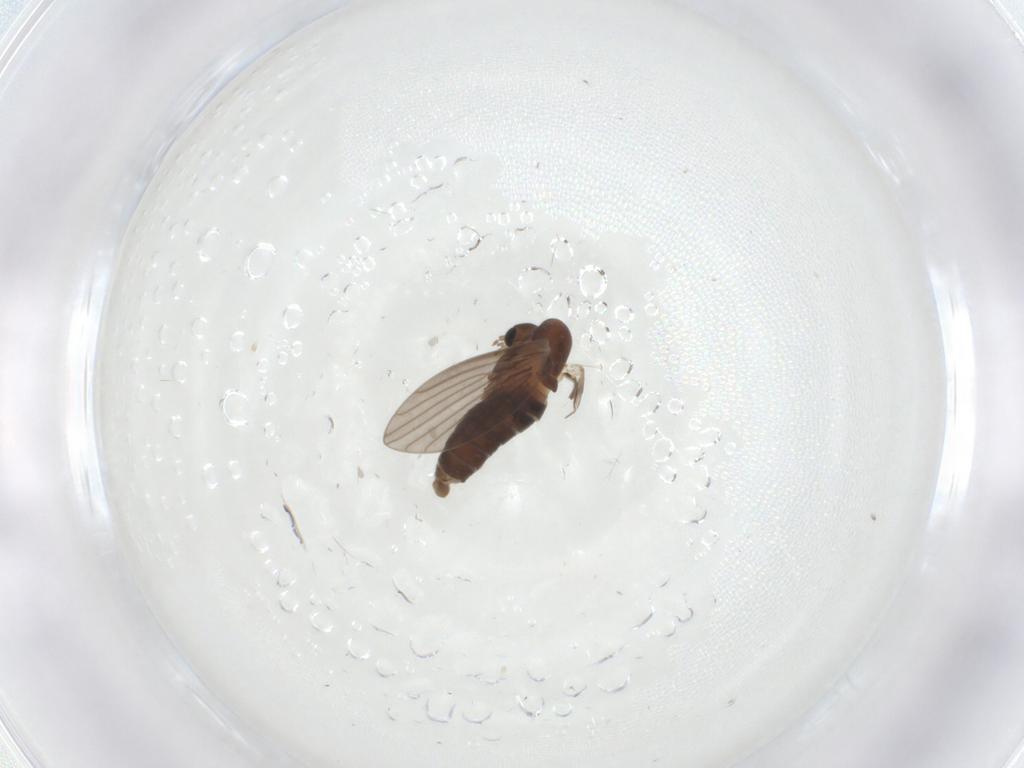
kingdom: Animalia
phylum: Arthropoda
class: Insecta
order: Diptera
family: Psychodidae
